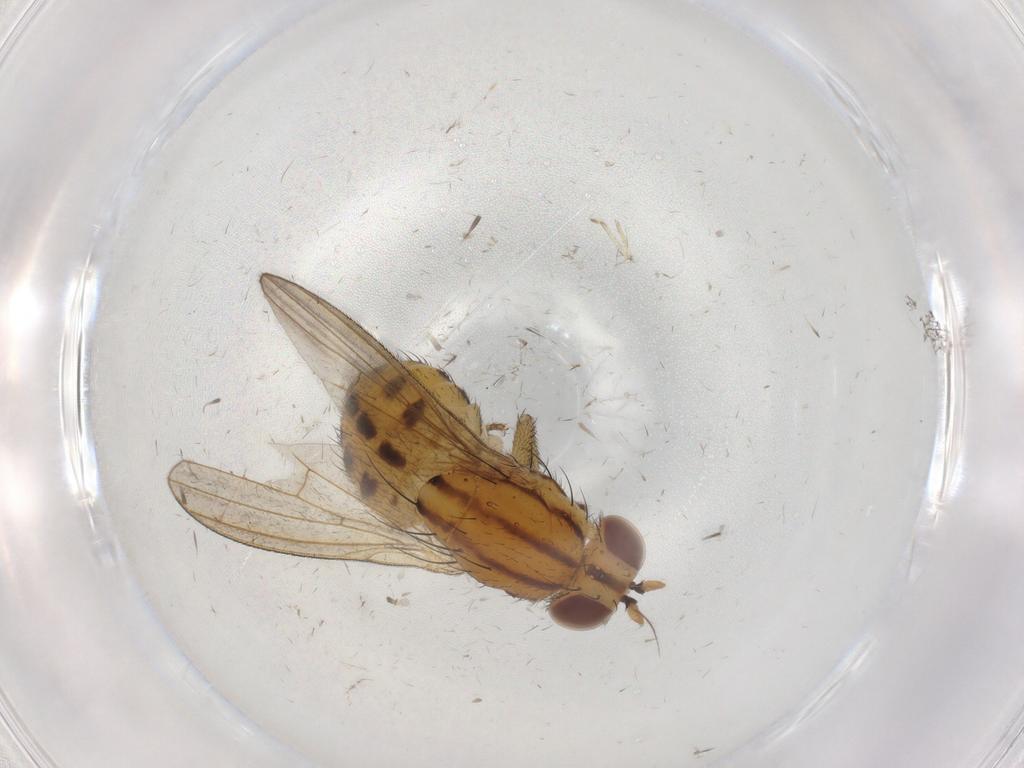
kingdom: Animalia
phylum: Arthropoda
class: Insecta
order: Diptera
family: Lauxaniidae
